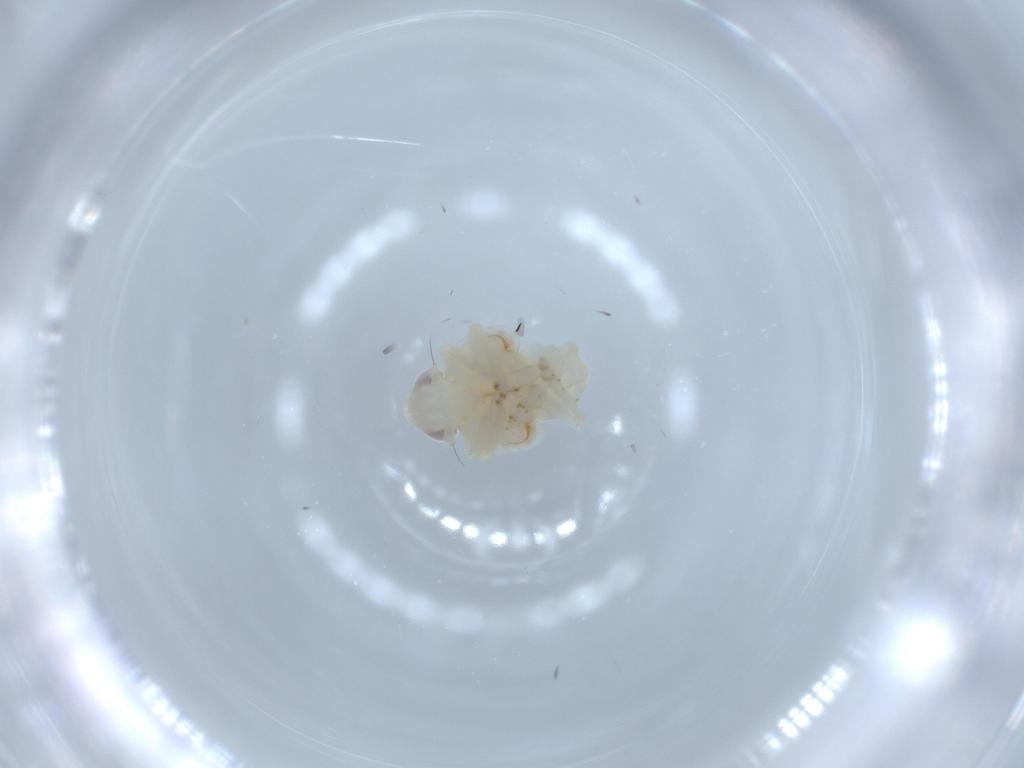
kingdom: Animalia
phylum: Arthropoda
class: Insecta
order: Hemiptera
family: Nogodinidae
